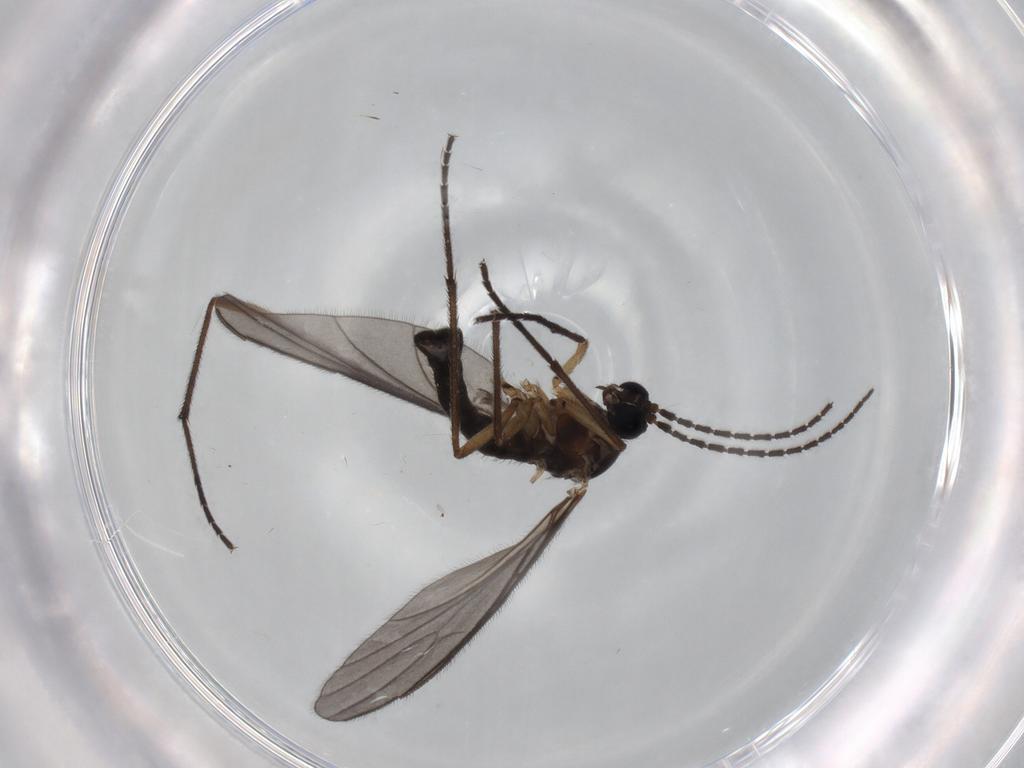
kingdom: Animalia
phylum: Arthropoda
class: Insecta
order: Diptera
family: Sciaridae
